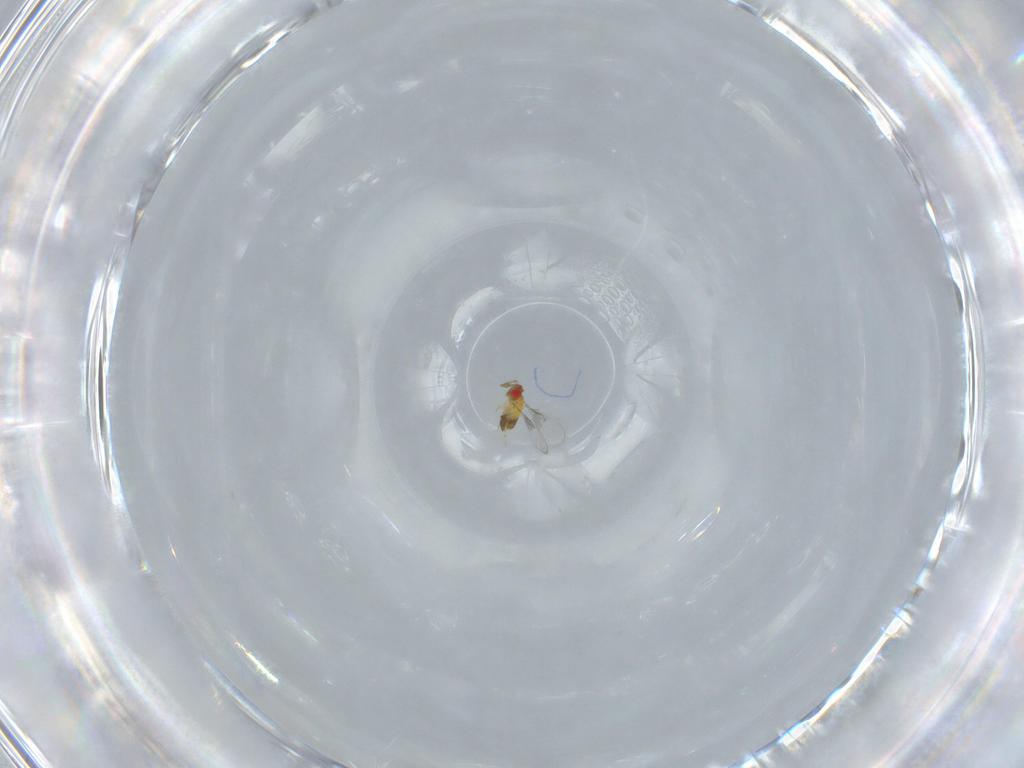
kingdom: Animalia
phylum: Arthropoda
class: Insecta
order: Hymenoptera
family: Trichogrammatidae
